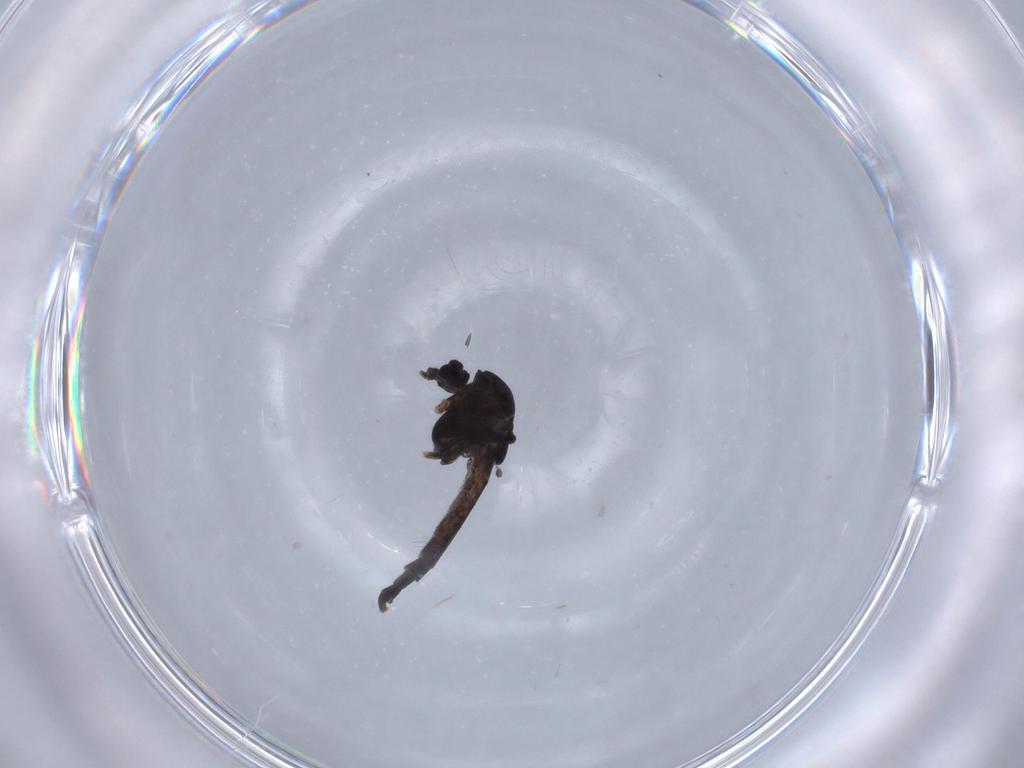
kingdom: Animalia
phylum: Arthropoda
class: Insecta
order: Diptera
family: Chironomidae
